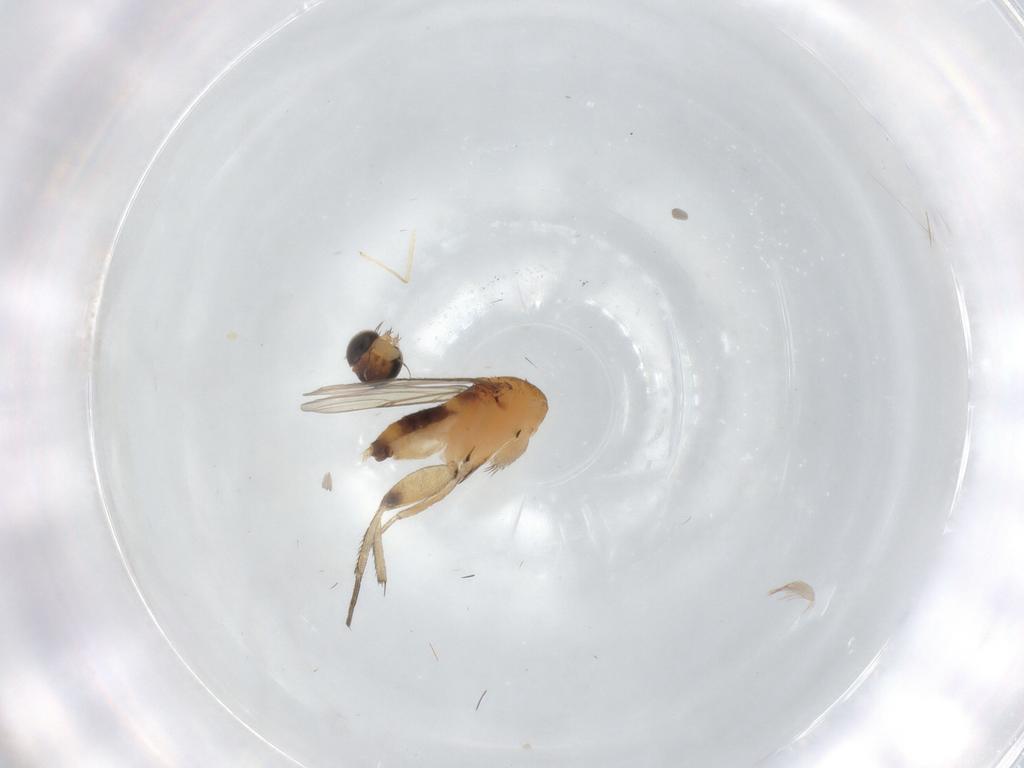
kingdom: Animalia
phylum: Arthropoda
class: Insecta
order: Diptera
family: Phoridae
